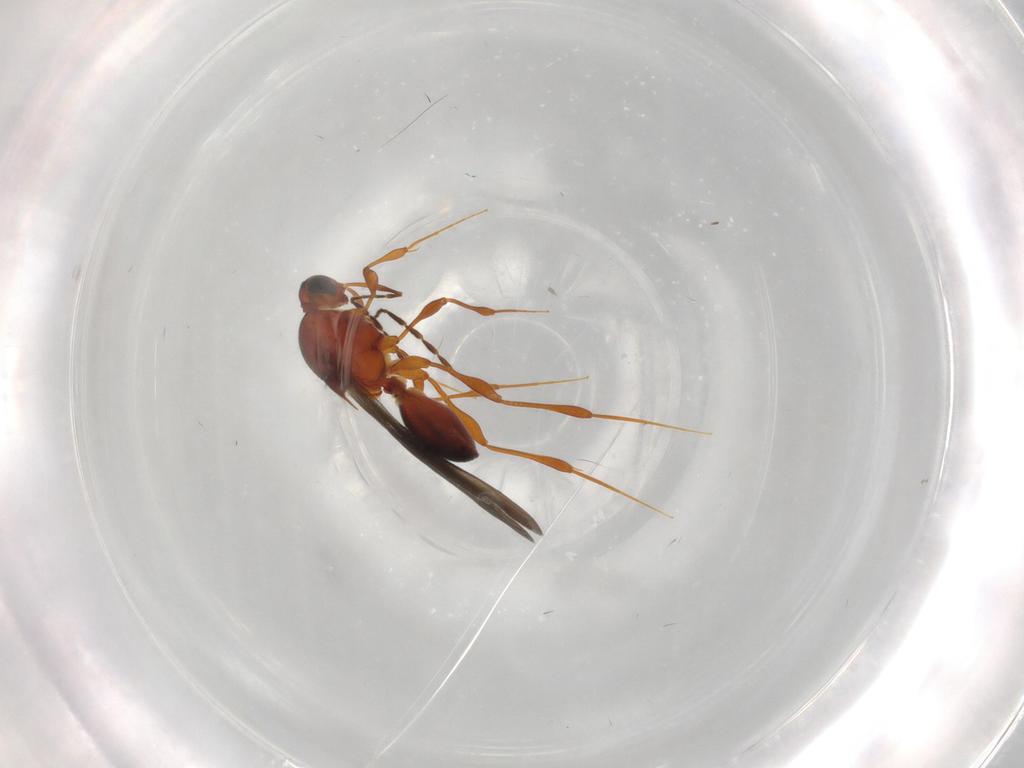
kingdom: Animalia
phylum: Arthropoda
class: Insecta
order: Hymenoptera
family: Platygastridae
